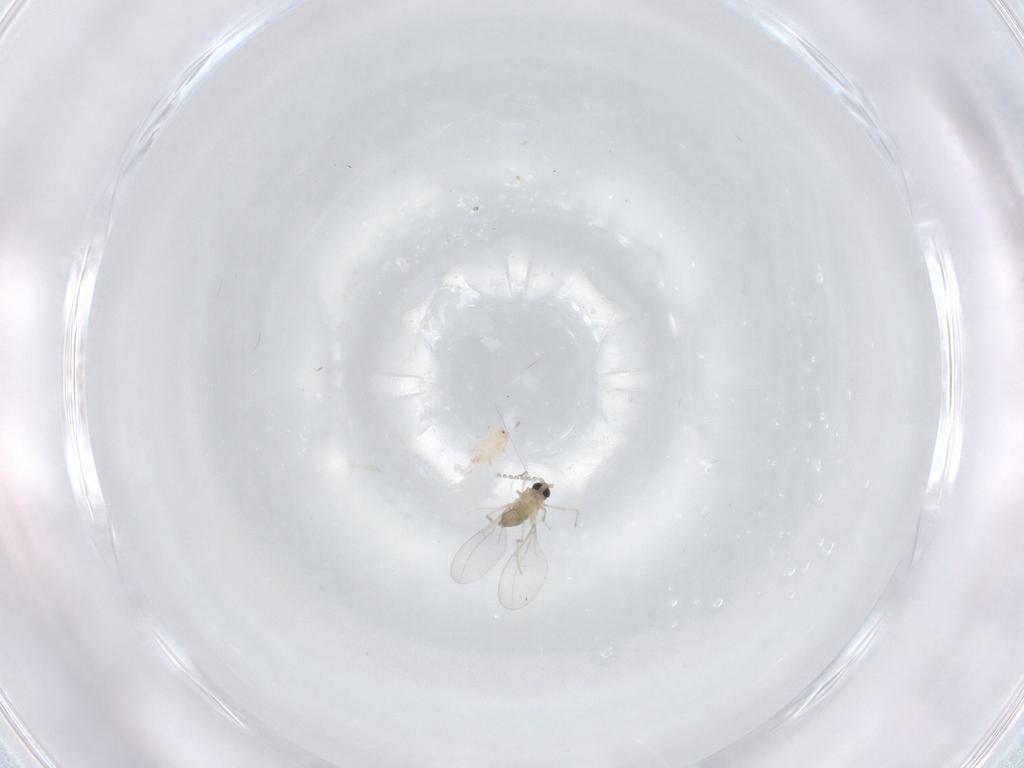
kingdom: Animalia
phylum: Arthropoda
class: Insecta
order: Diptera
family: Cecidomyiidae
